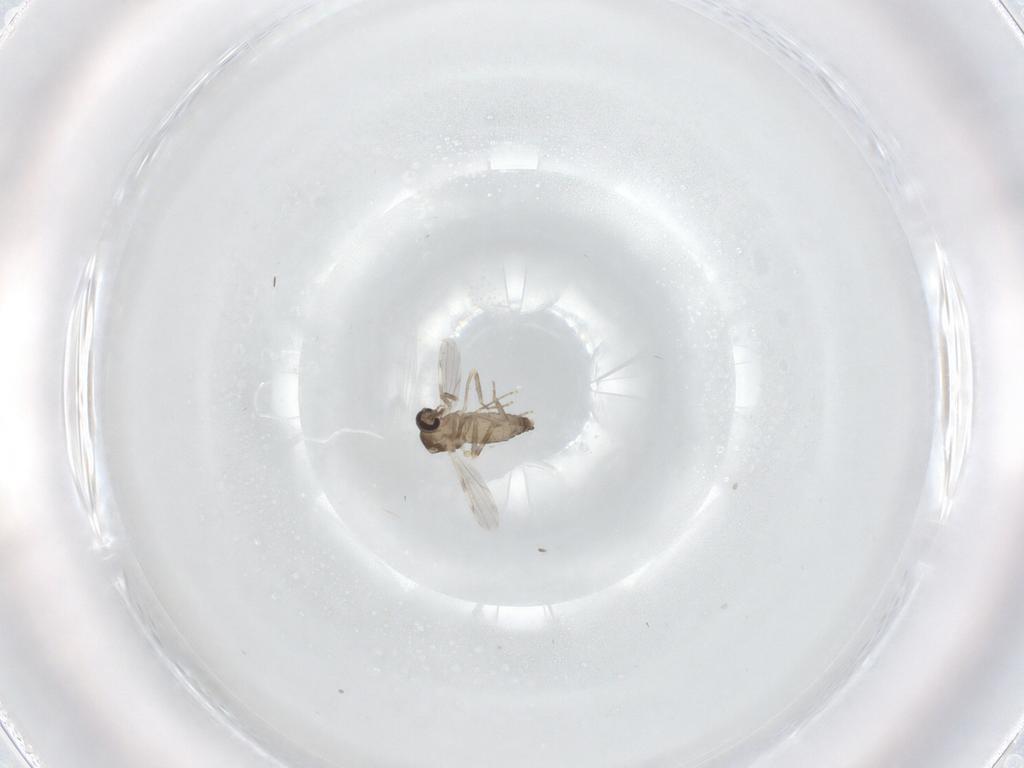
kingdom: Animalia
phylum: Arthropoda
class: Insecta
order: Diptera
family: Ceratopogonidae
